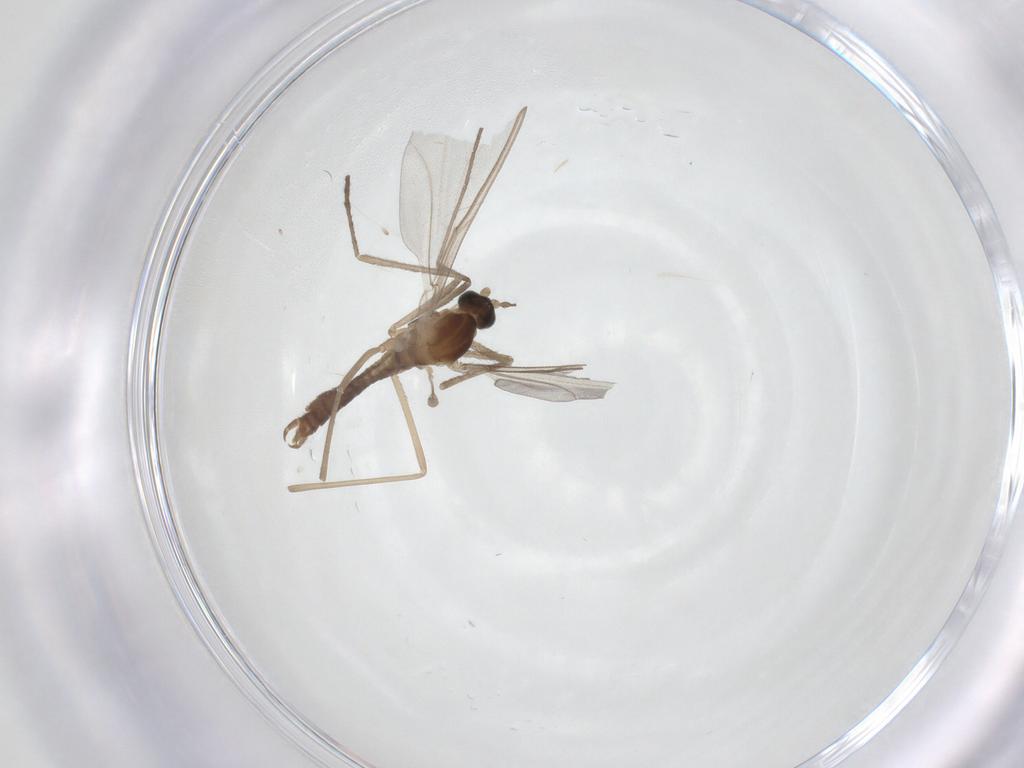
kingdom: Animalia
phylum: Arthropoda
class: Insecta
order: Diptera
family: Cecidomyiidae
